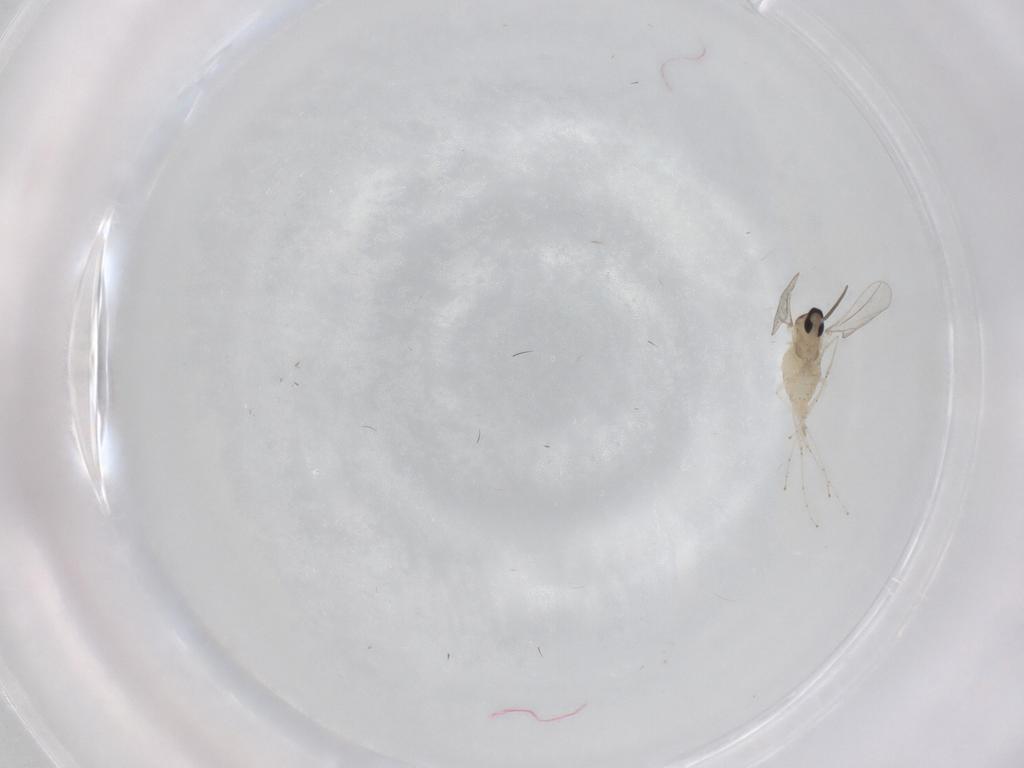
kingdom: Animalia
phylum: Arthropoda
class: Insecta
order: Diptera
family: Cecidomyiidae
